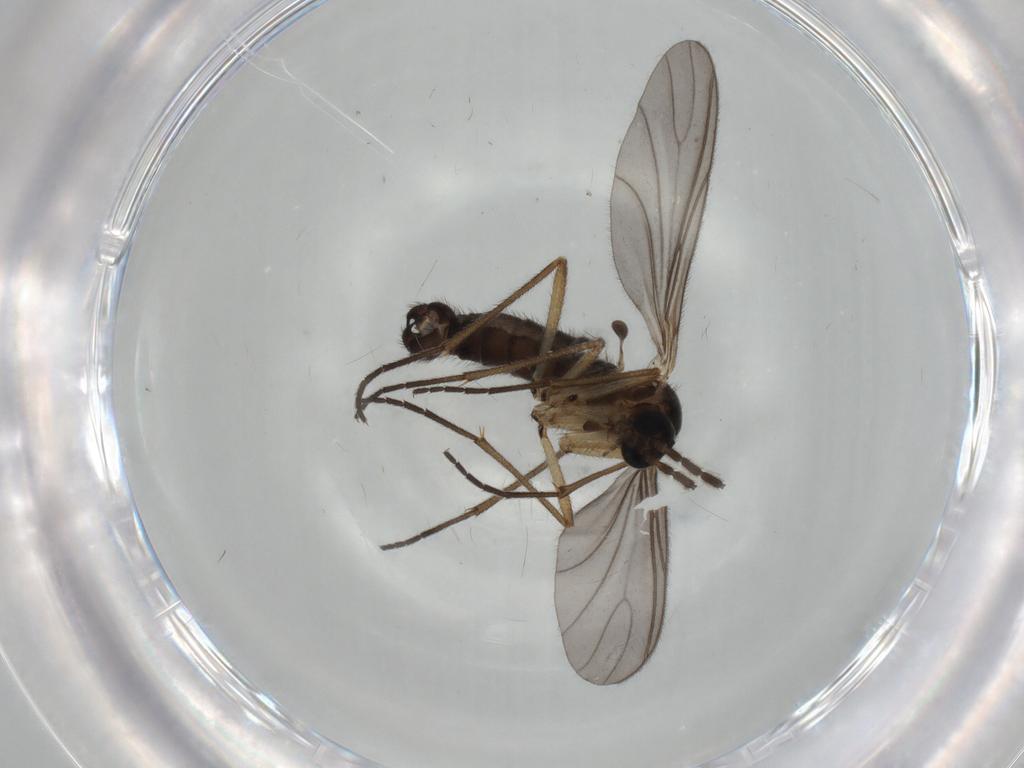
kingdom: Animalia
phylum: Arthropoda
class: Insecta
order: Diptera
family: Sciaridae
